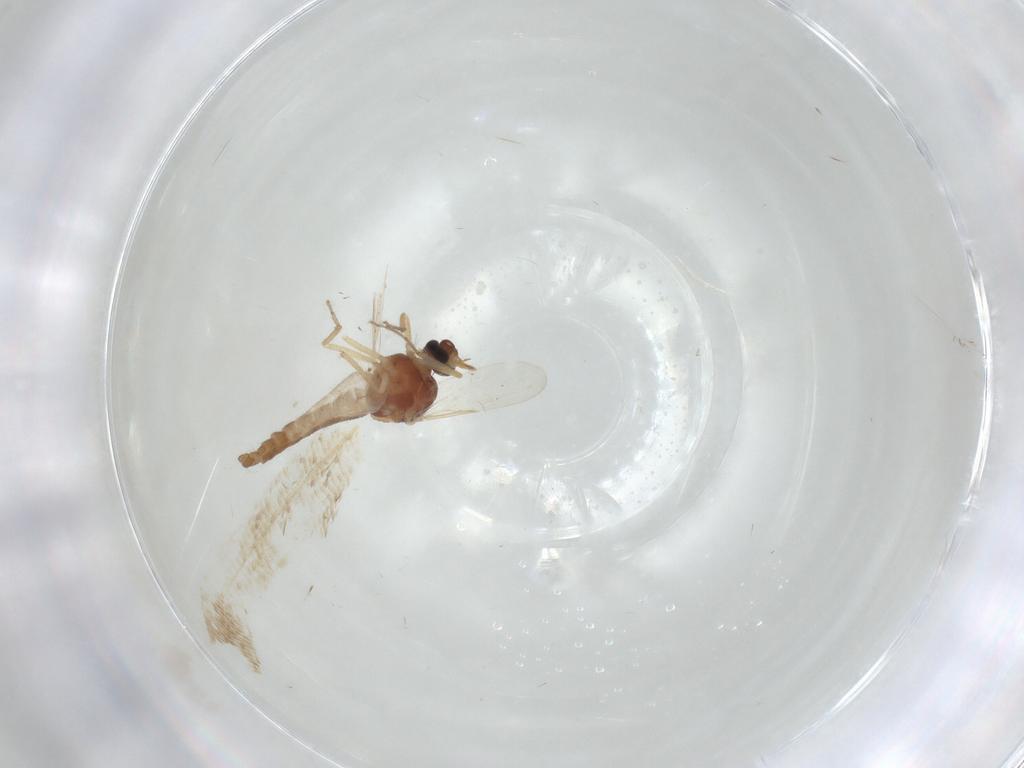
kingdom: Animalia
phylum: Arthropoda
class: Insecta
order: Diptera
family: Ceratopogonidae
